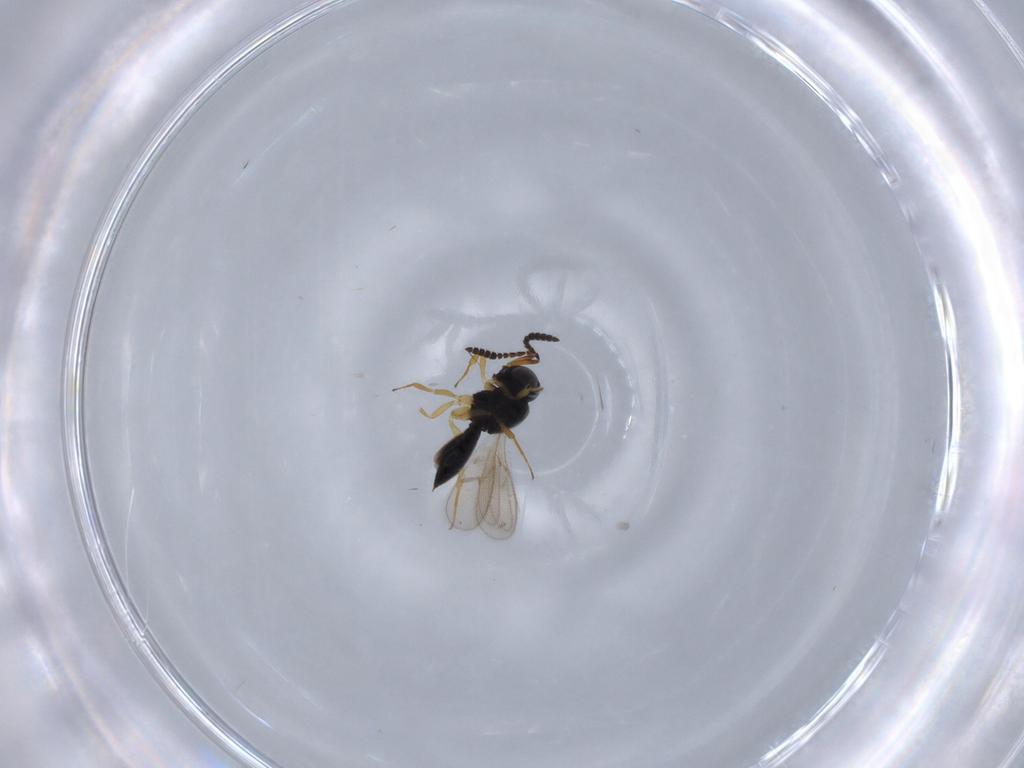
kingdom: Animalia
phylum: Arthropoda
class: Insecta
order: Hymenoptera
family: Scelionidae
